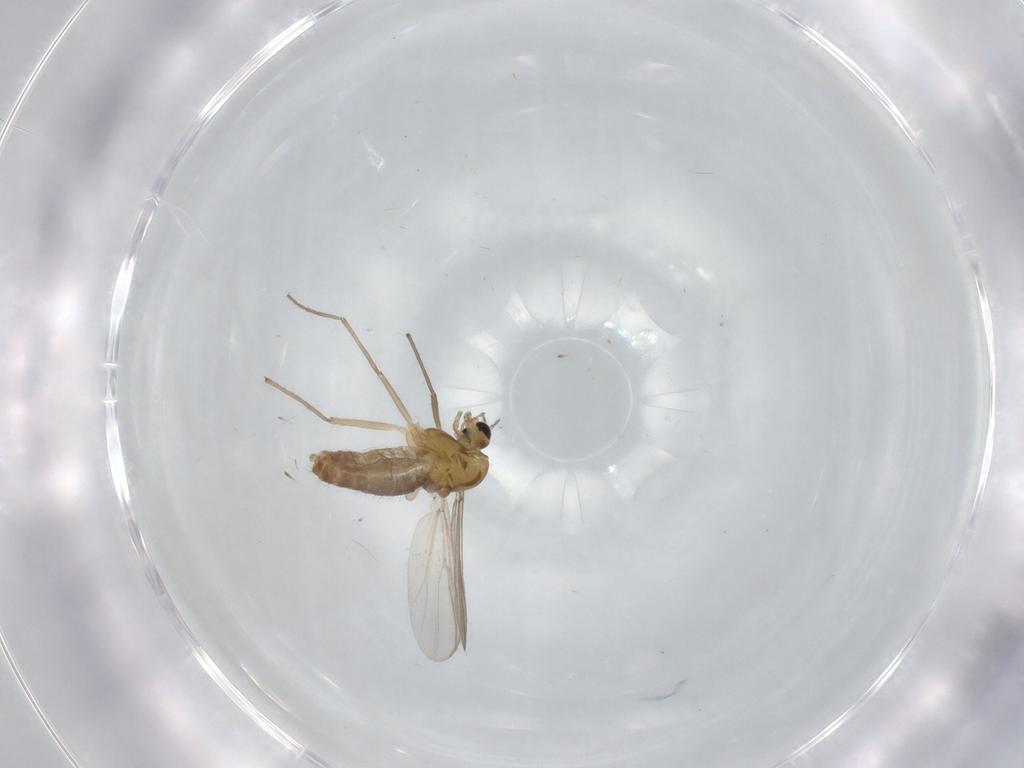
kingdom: Animalia
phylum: Arthropoda
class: Insecta
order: Diptera
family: Chironomidae
